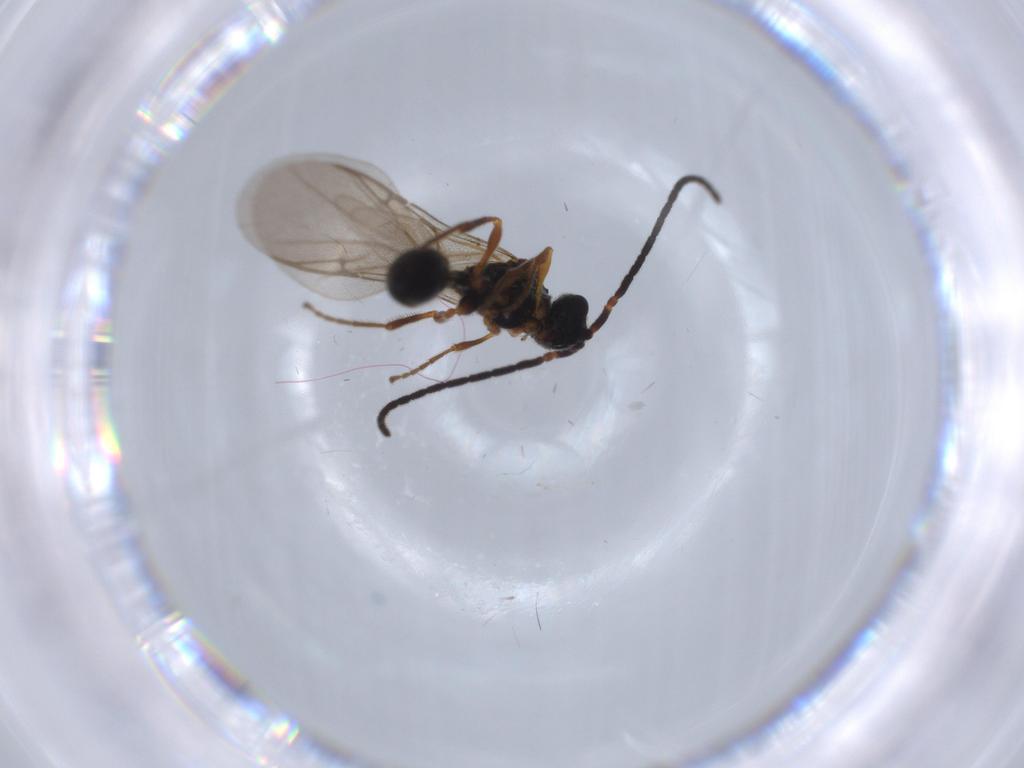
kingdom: Animalia
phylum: Arthropoda
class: Insecta
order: Hymenoptera
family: Diapriidae
